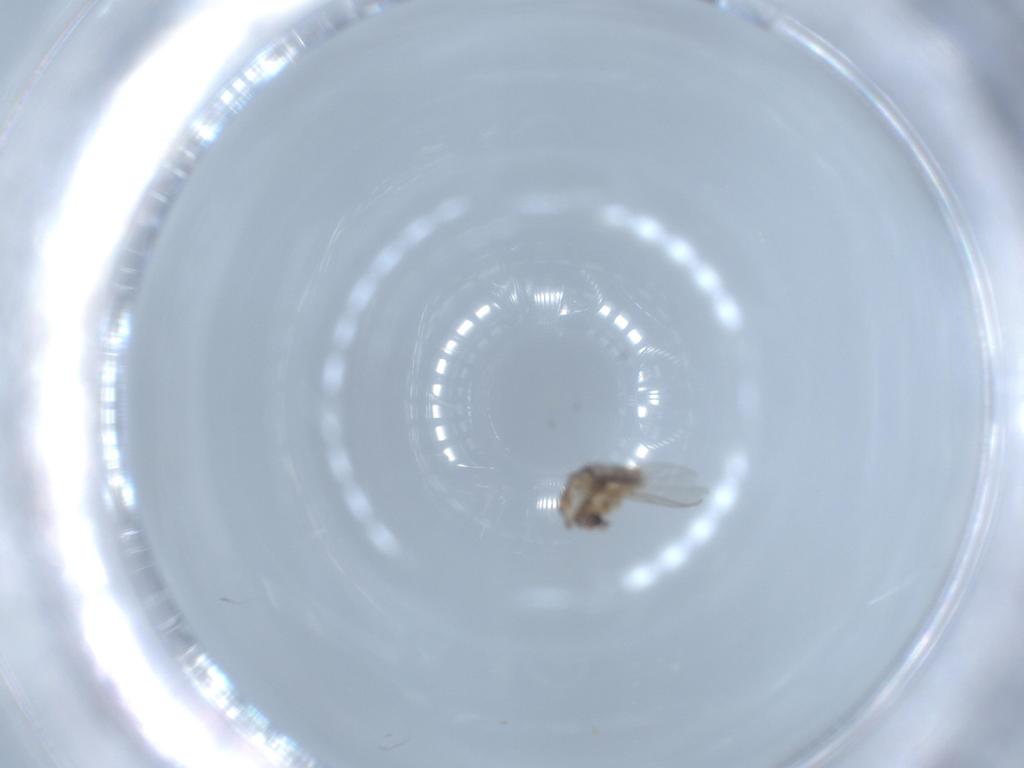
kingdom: Animalia
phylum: Arthropoda
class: Insecta
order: Diptera
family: Chironomidae
